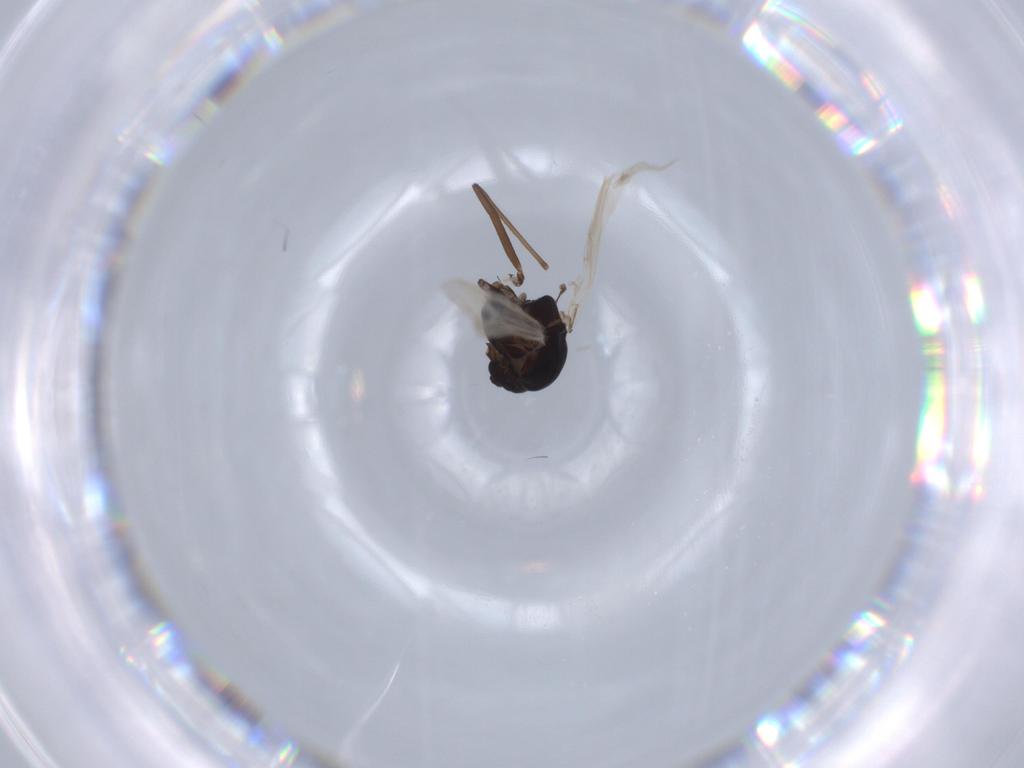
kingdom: Animalia
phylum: Arthropoda
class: Insecta
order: Diptera
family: Chironomidae
